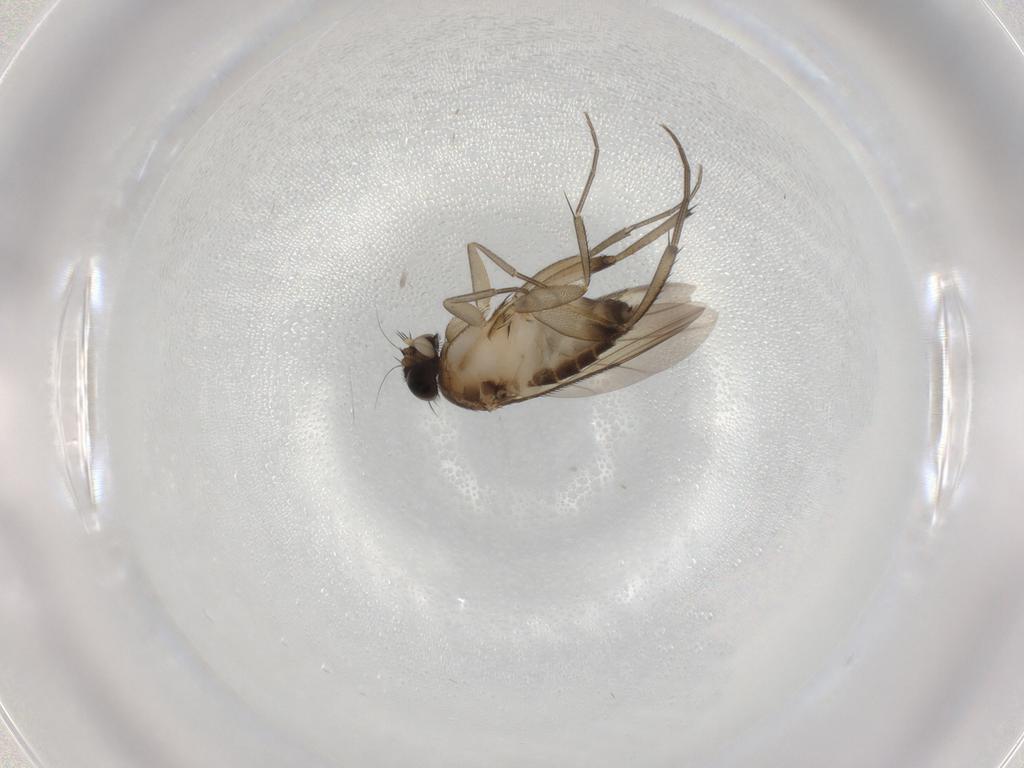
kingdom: Animalia
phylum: Arthropoda
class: Insecta
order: Diptera
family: Phoridae
